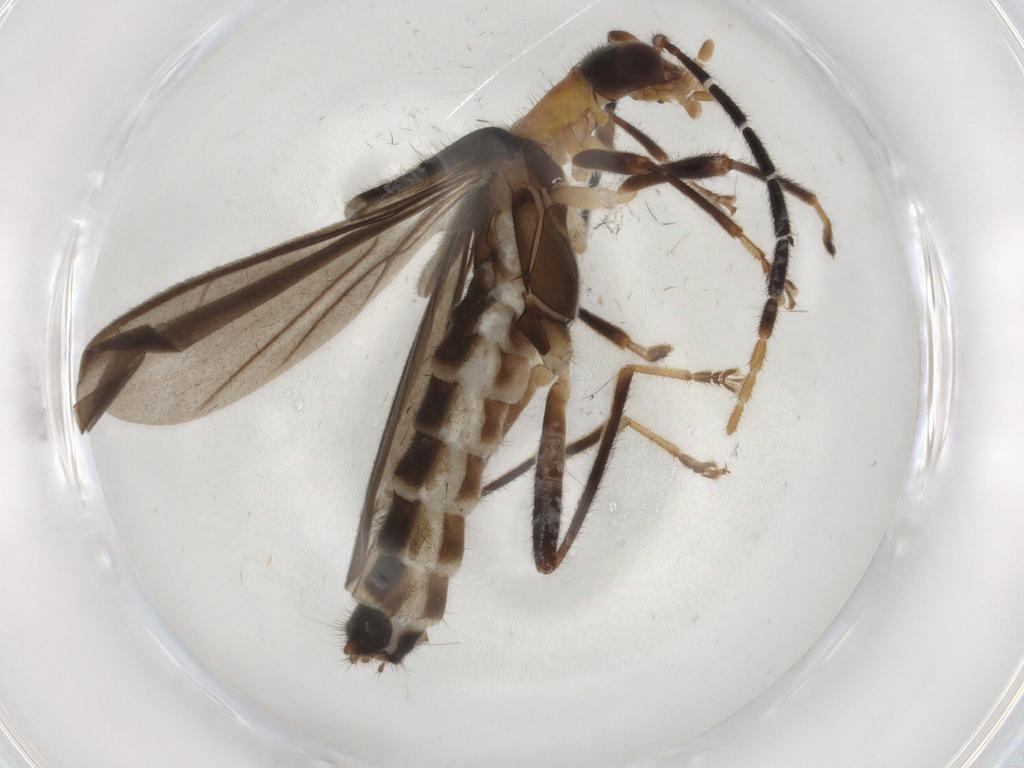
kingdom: Animalia
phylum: Arthropoda
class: Insecta
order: Coleoptera
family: Cantharidae
